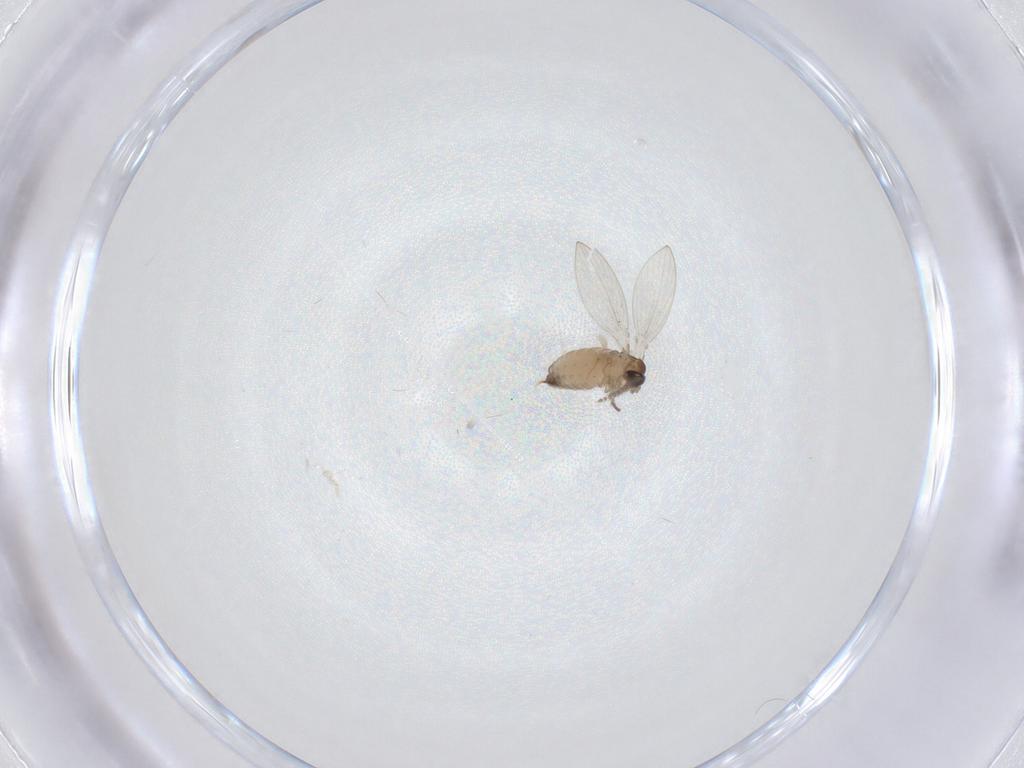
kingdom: Animalia
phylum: Arthropoda
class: Insecta
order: Diptera
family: Psychodidae
